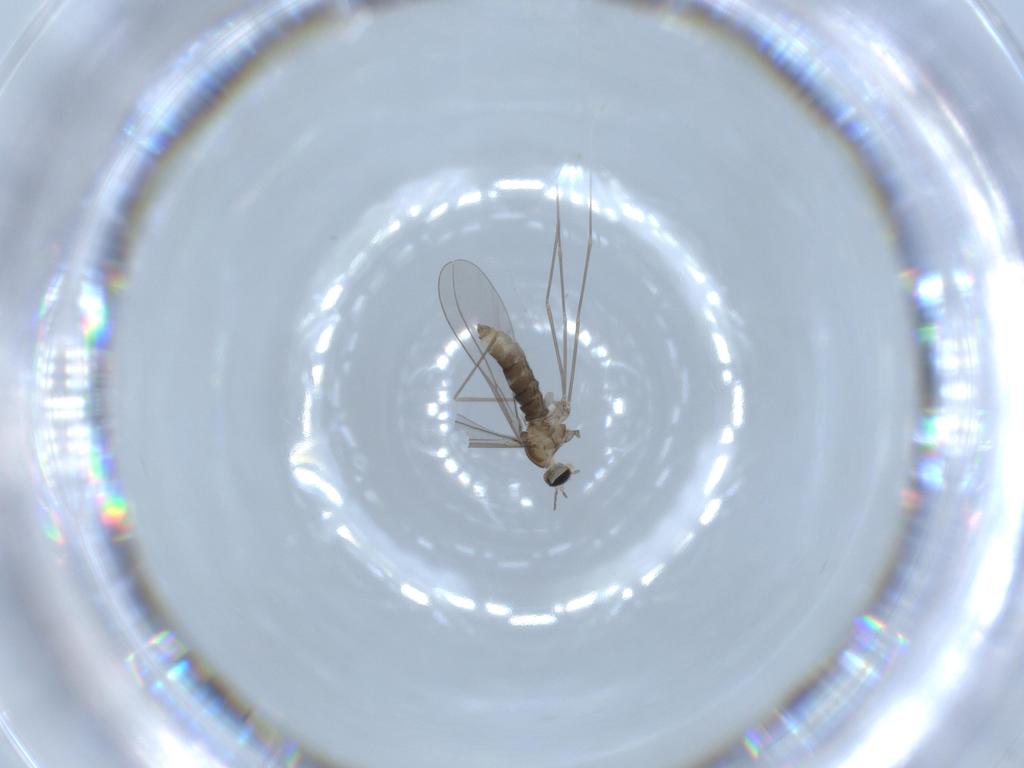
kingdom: Animalia
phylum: Arthropoda
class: Insecta
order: Diptera
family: Cecidomyiidae
